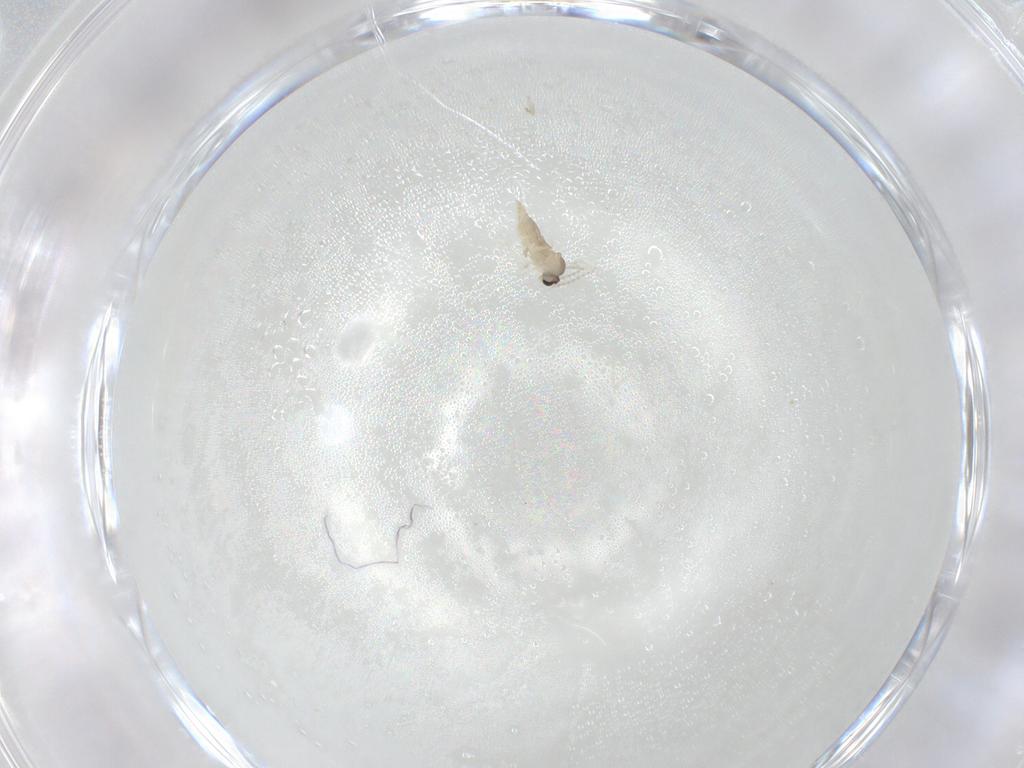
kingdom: Animalia
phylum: Arthropoda
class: Insecta
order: Diptera
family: Cecidomyiidae
